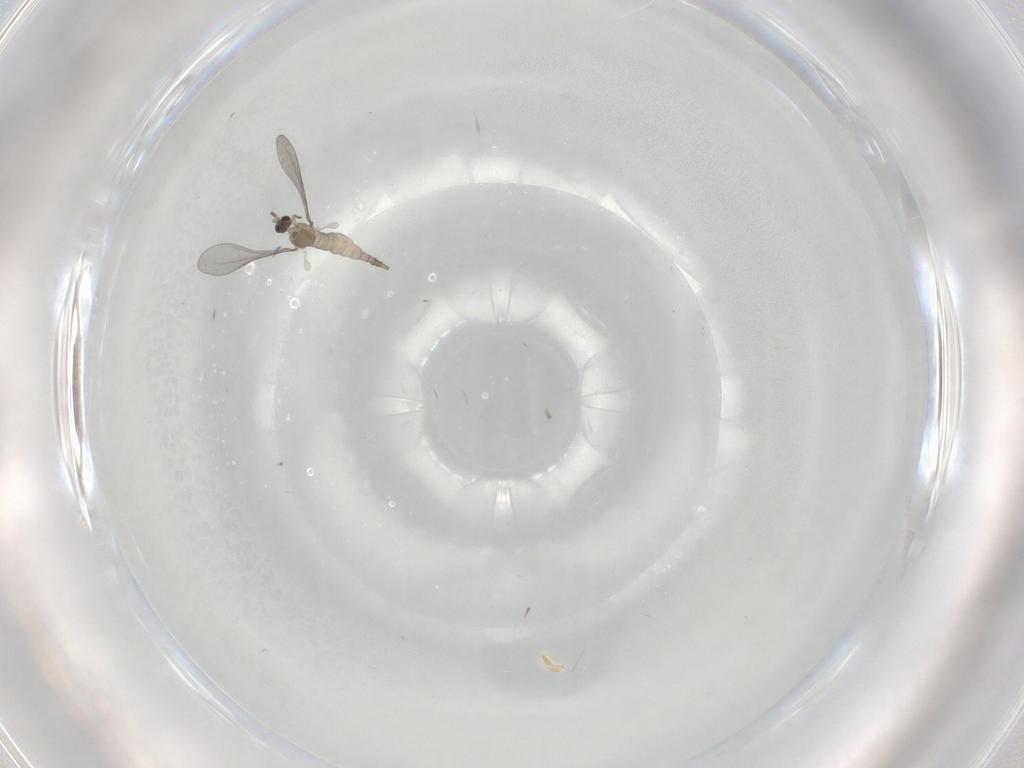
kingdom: Animalia
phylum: Arthropoda
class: Insecta
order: Diptera
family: Cecidomyiidae
